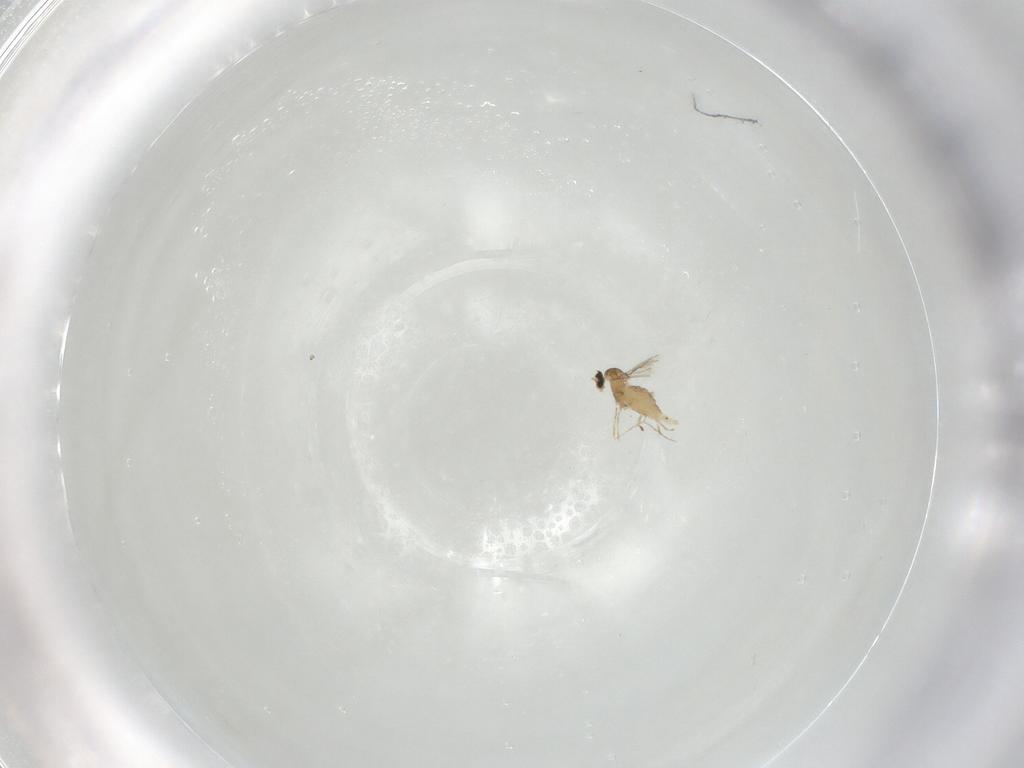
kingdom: Animalia
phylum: Arthropoda
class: Insecta
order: Diptera
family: Cecidomyiidae
